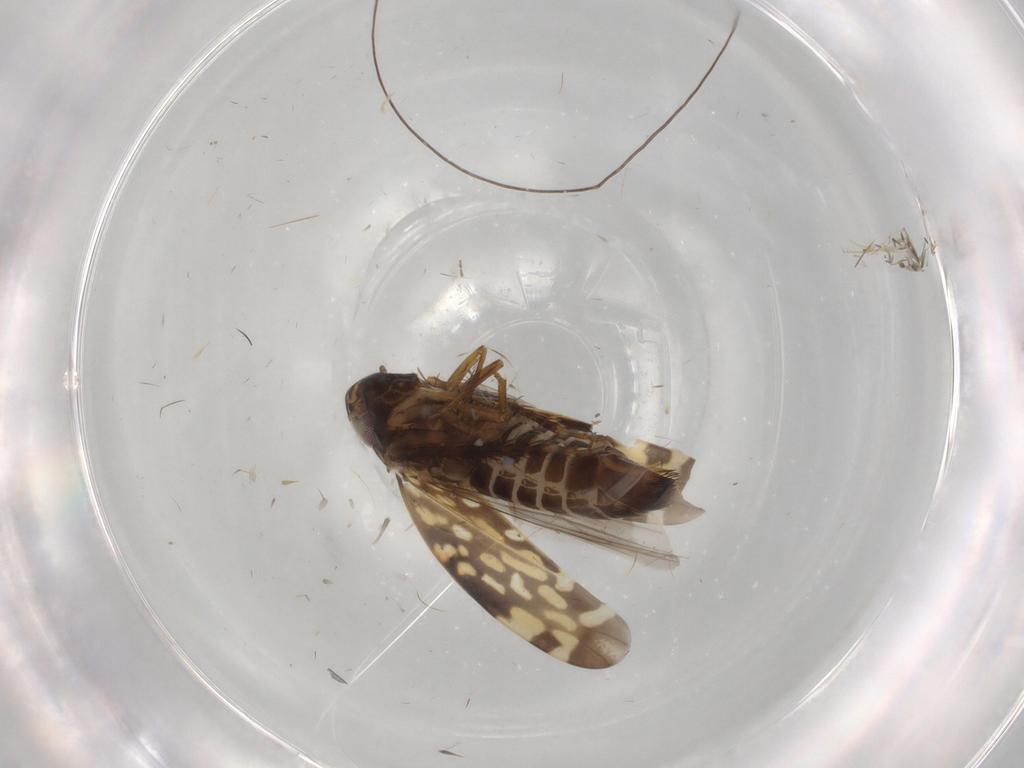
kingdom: Animalia
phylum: Arthropoda
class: Insecta
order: Hemiptera
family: Cicadellidae
